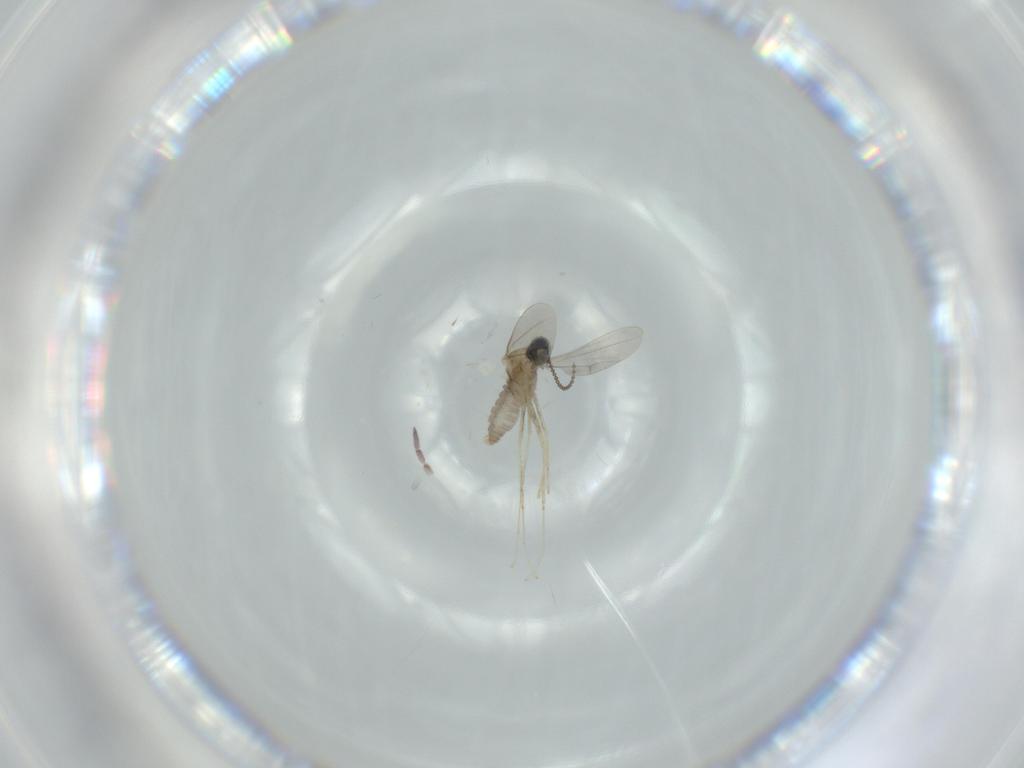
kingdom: Animalia
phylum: Arthropoda
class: Insecta
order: Diptera
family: Cecidomyiidae
